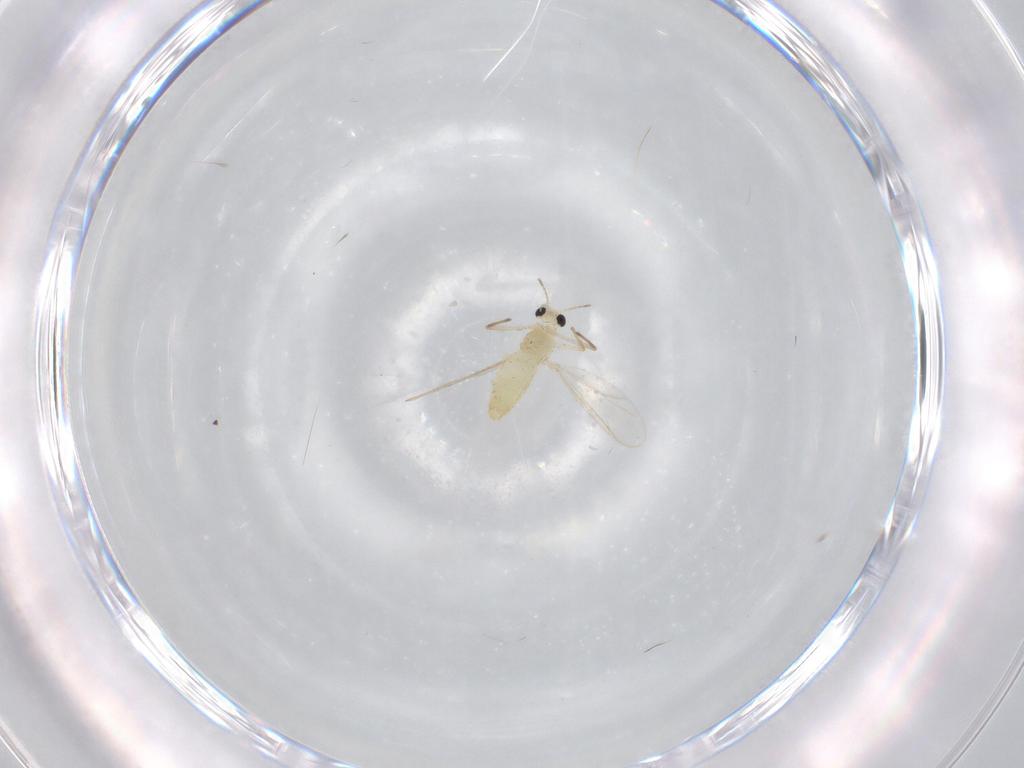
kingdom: Animalia
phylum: Arthropoda
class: Insecta
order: Diptera
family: Chironomidae
